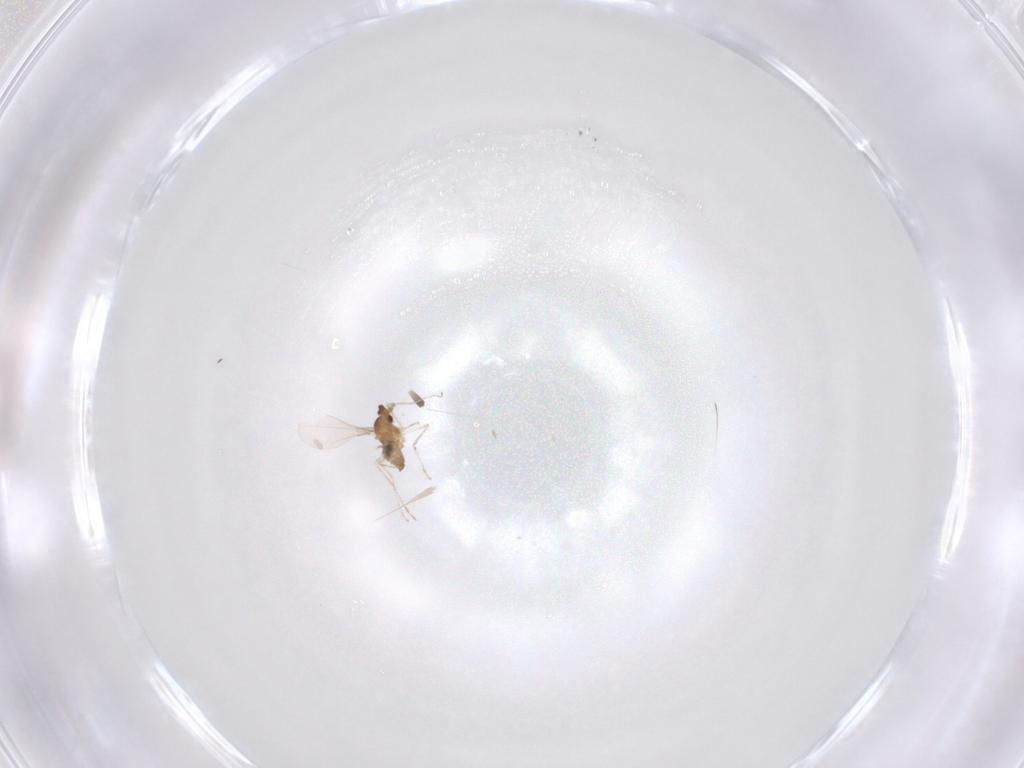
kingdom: Animalia
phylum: Arthropoda
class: Insecta
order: Diptera
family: Cecidomyiidae
